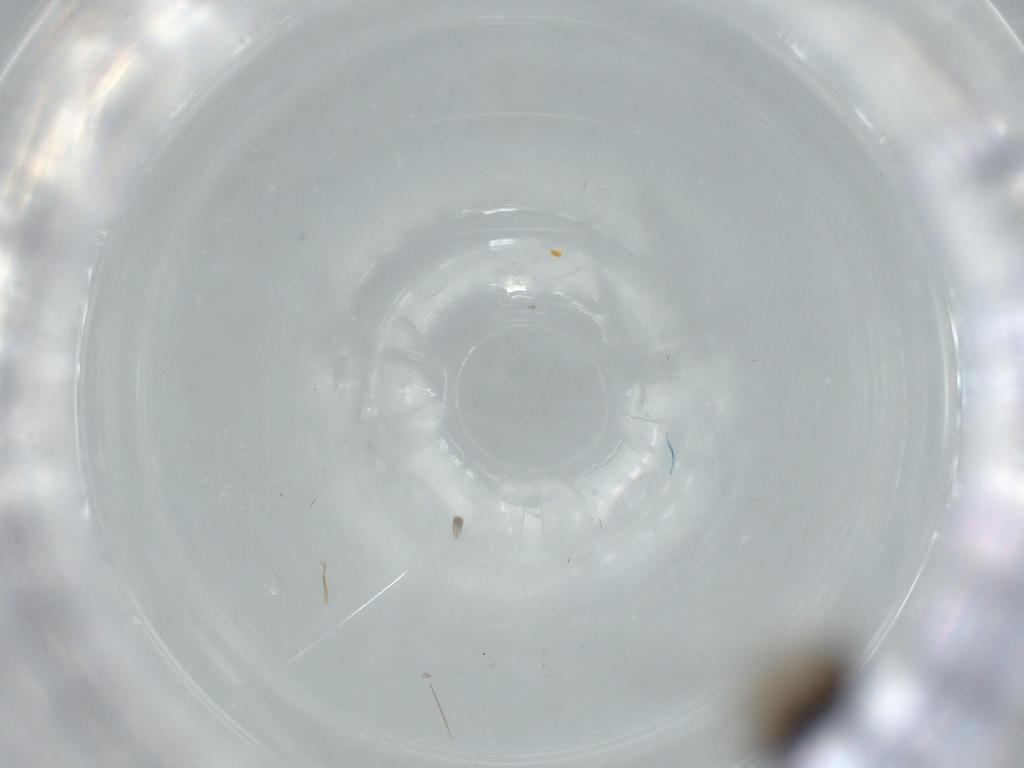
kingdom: Animalia
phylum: Arthropoda
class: Insecta
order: Hemiptera
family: Ceratocombidae
